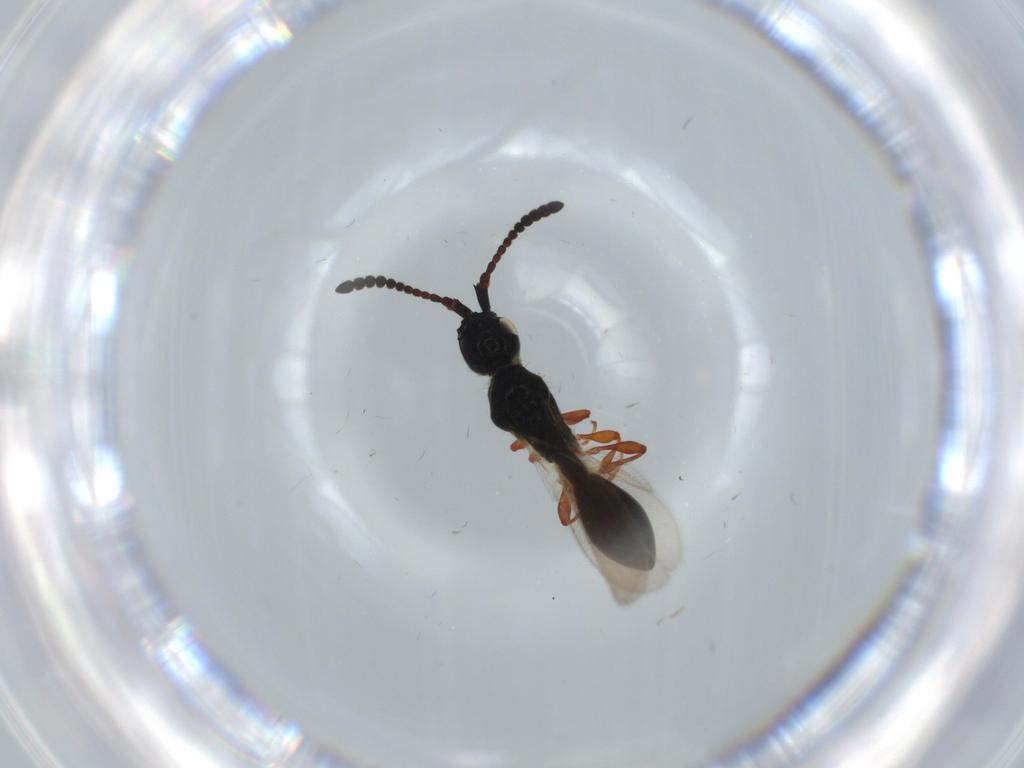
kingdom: Animalia
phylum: Arthropoda
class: Insecta
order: Hymenoptera
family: Diapriidae
